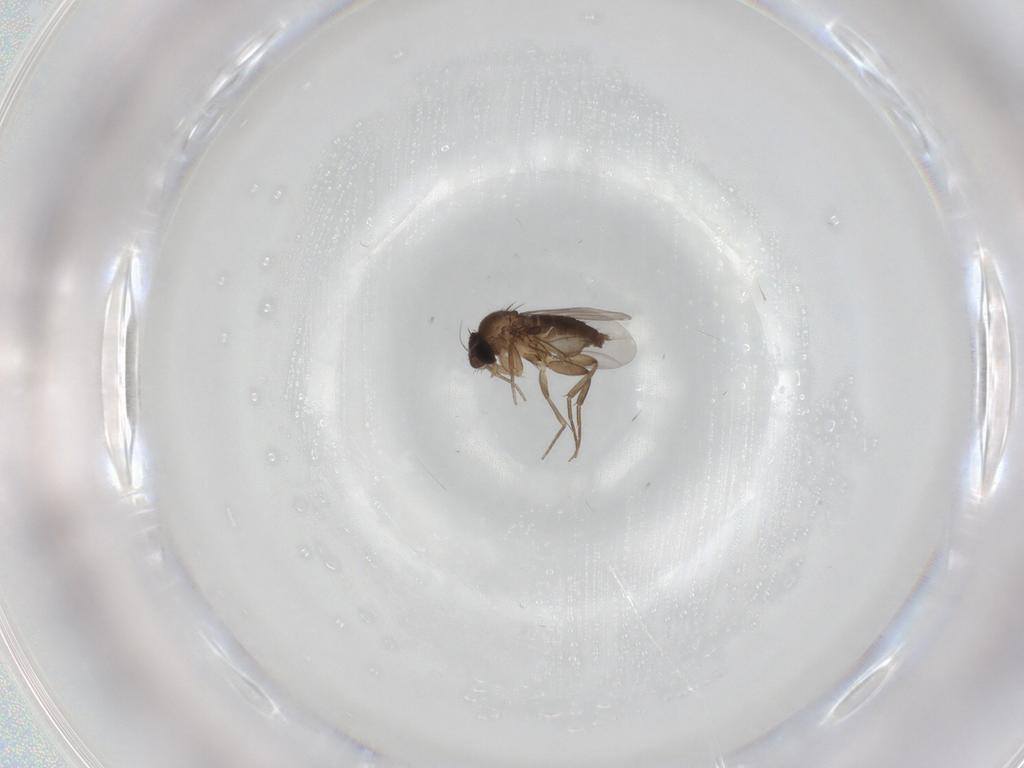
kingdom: Animalia
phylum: Arthropoda
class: Insecta
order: Diptera
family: Phoridae
